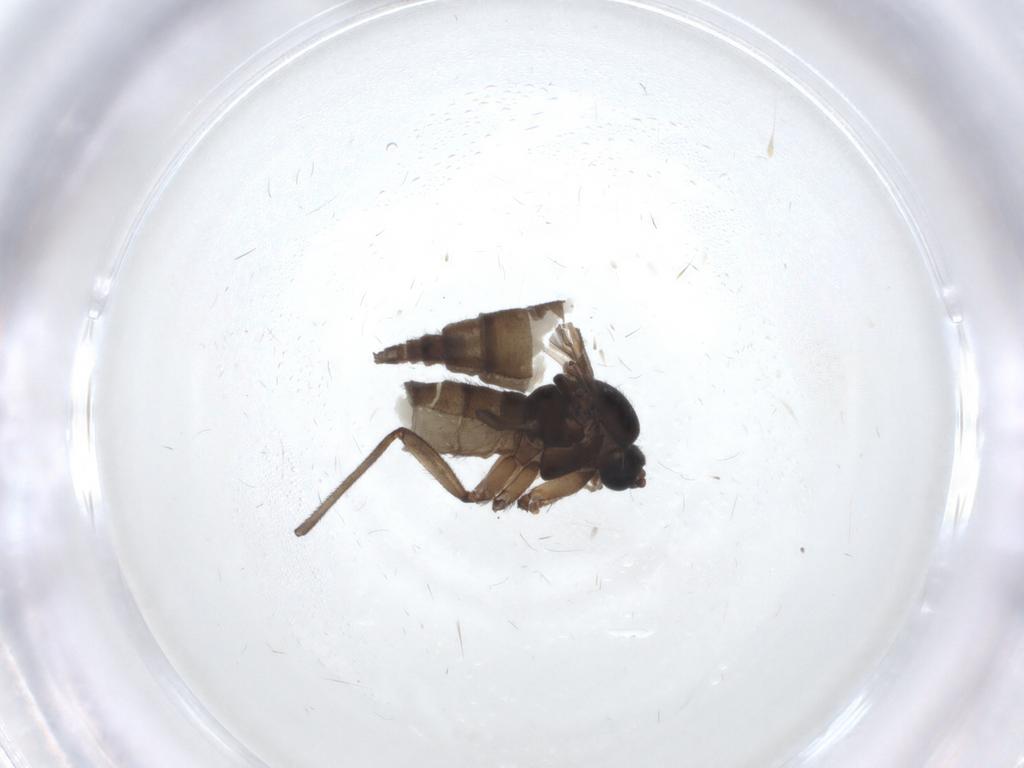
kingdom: Animalia
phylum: Arthropoda
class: Insecta
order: Diptera
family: Sciaridae
